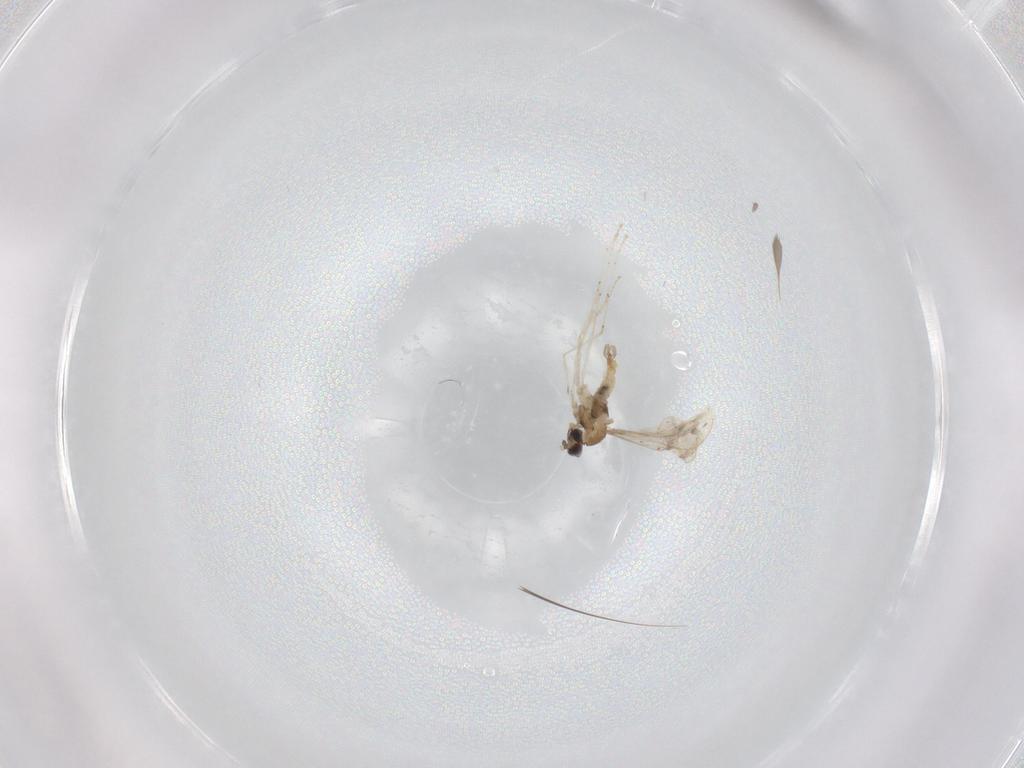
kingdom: Animalia
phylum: Arthropoda
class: Insecta
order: Diptera
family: Cecidomyiidae
